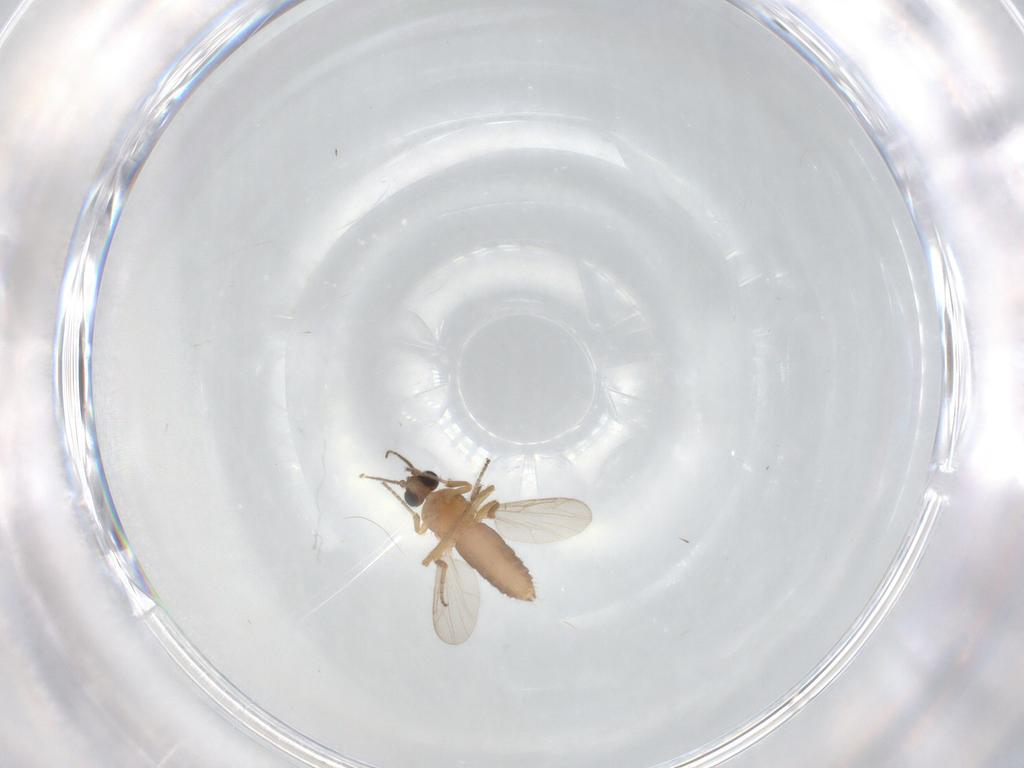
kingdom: Animalia
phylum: Arthropoda
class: Insecta
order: Diptera
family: Ceratopogonidae
